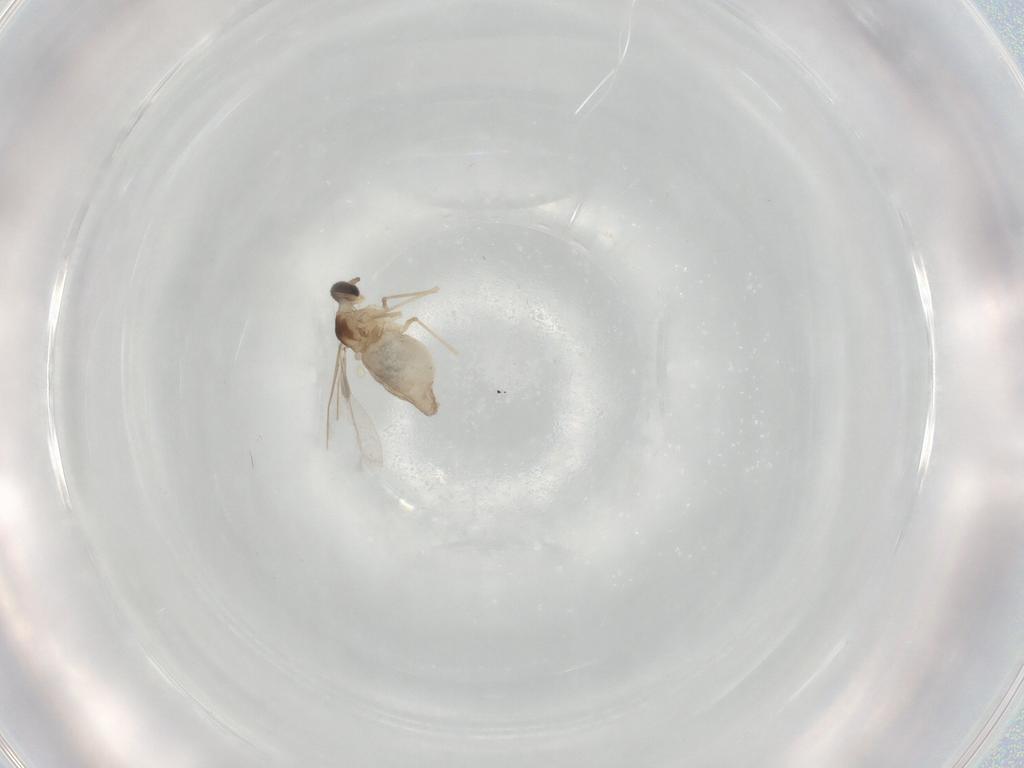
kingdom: Animalia
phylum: Arthropoda
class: Insecta
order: Diptera
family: Cecidomyiidae
